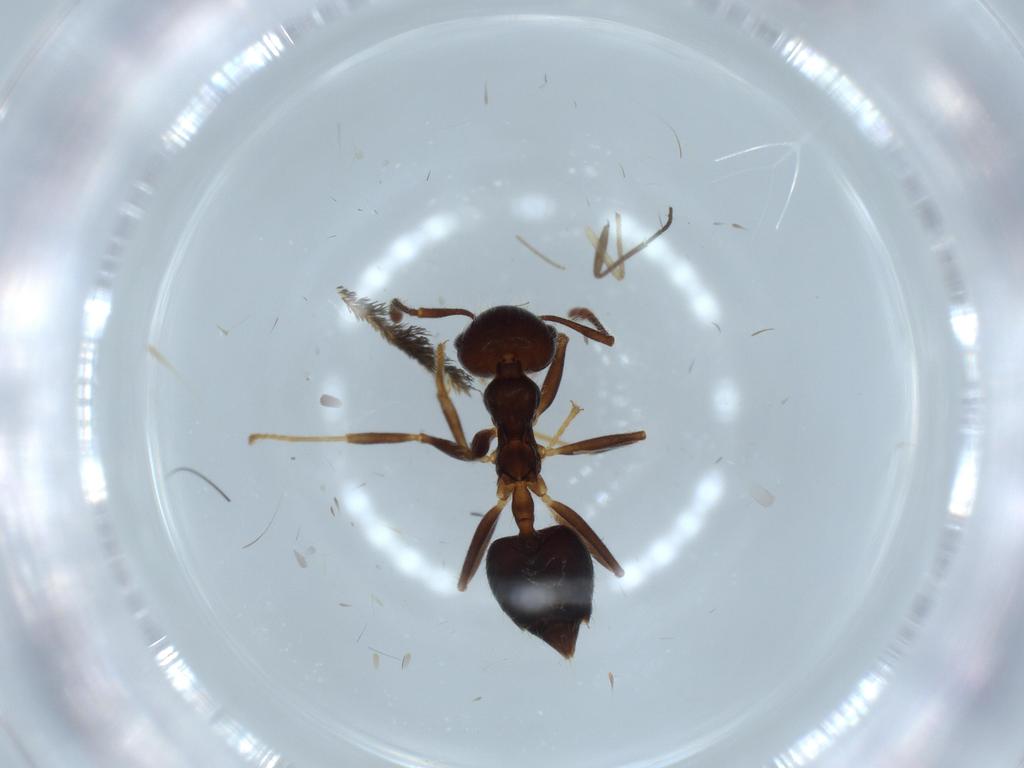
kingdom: Animalia
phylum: Arthropoda
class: Insecta
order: Hymenoptera
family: Formicidae
